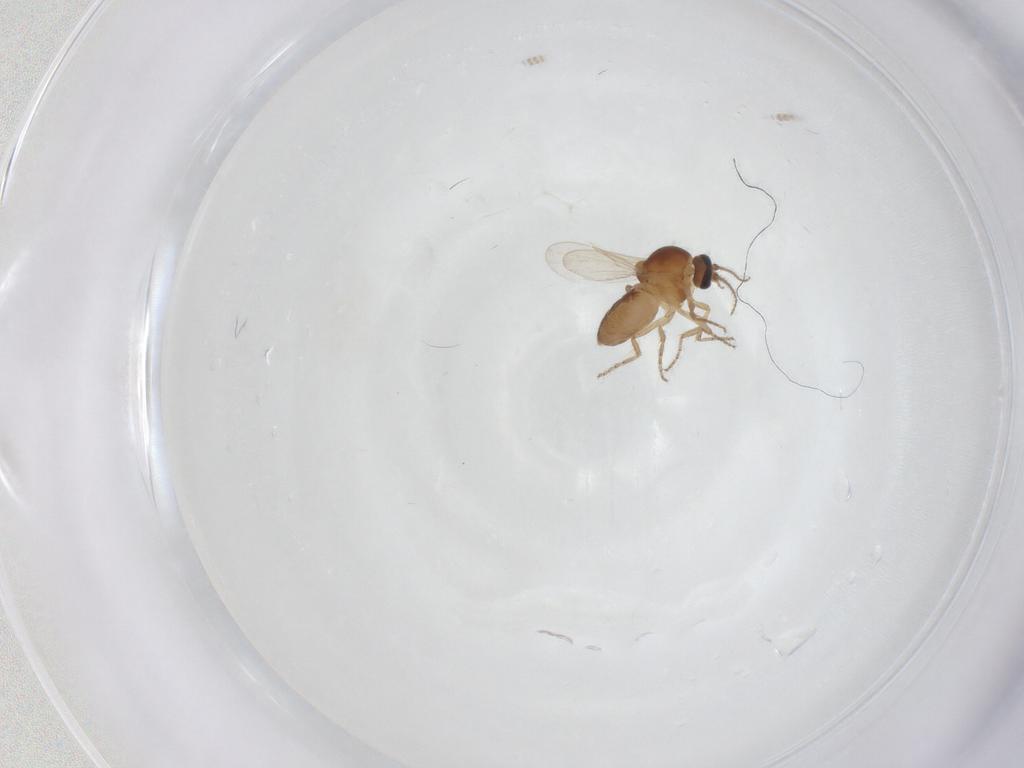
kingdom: Animalia
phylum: Arthropoda
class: Insecta
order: Diptera
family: Ceratopogonidae
